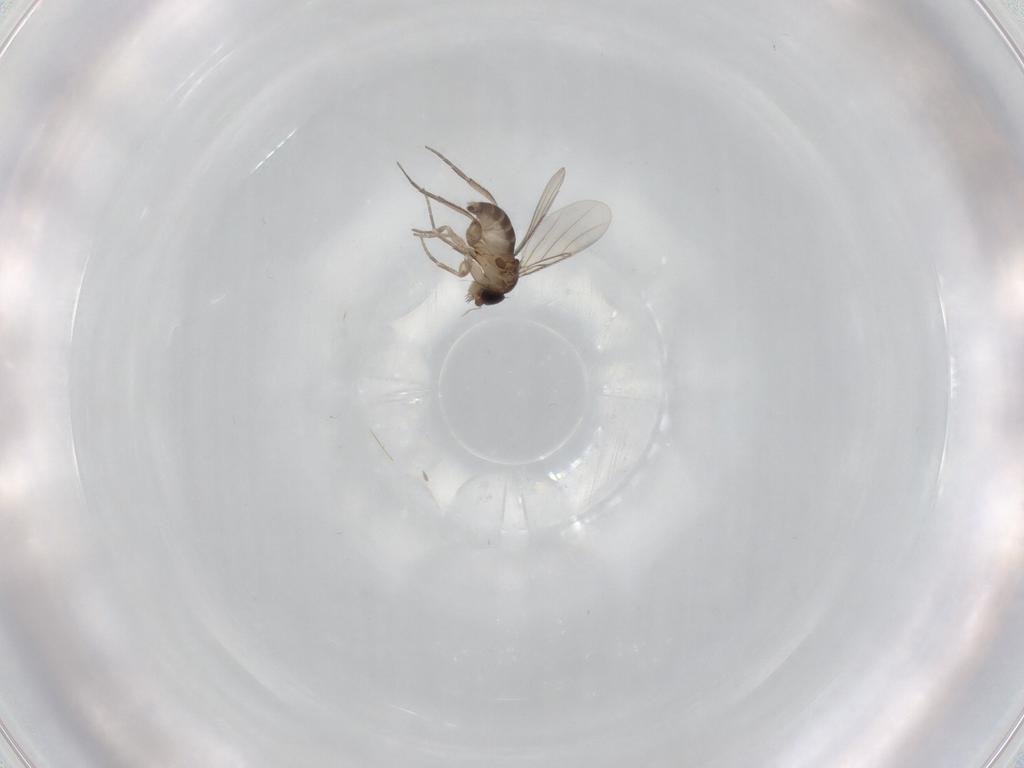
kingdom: Animalia
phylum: Arthropoda
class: Insecta
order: Diptera
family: Phoridae
